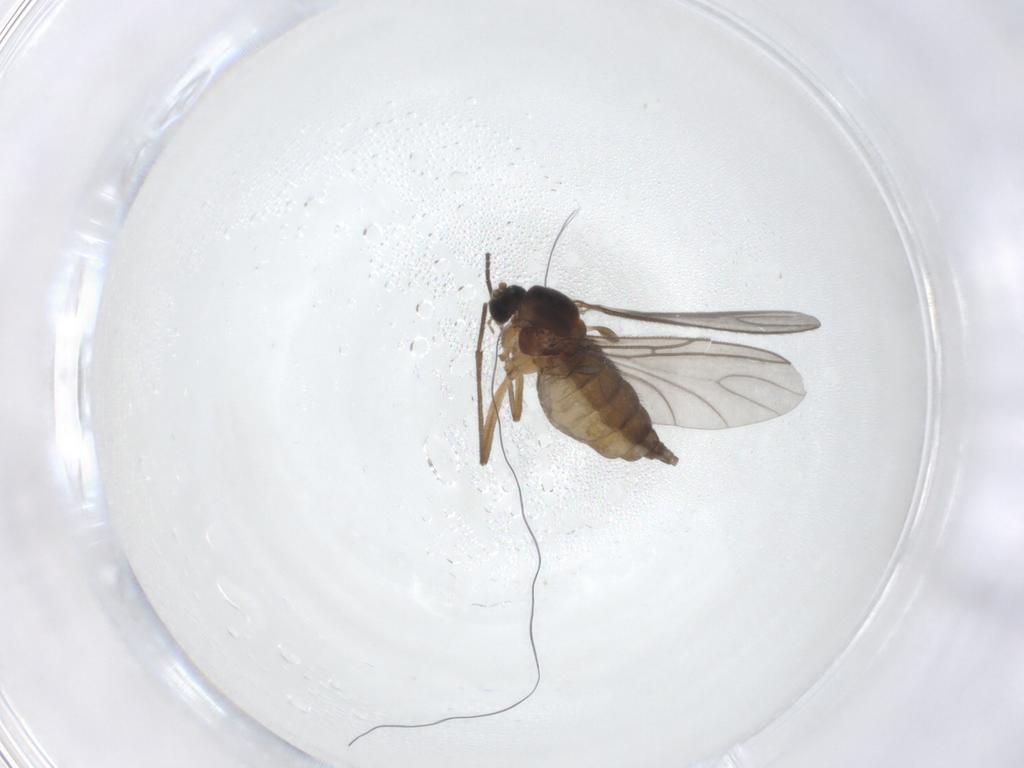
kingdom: Animalia
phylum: Arthropoda
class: Insecta
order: Diptera
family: Sciaridae
